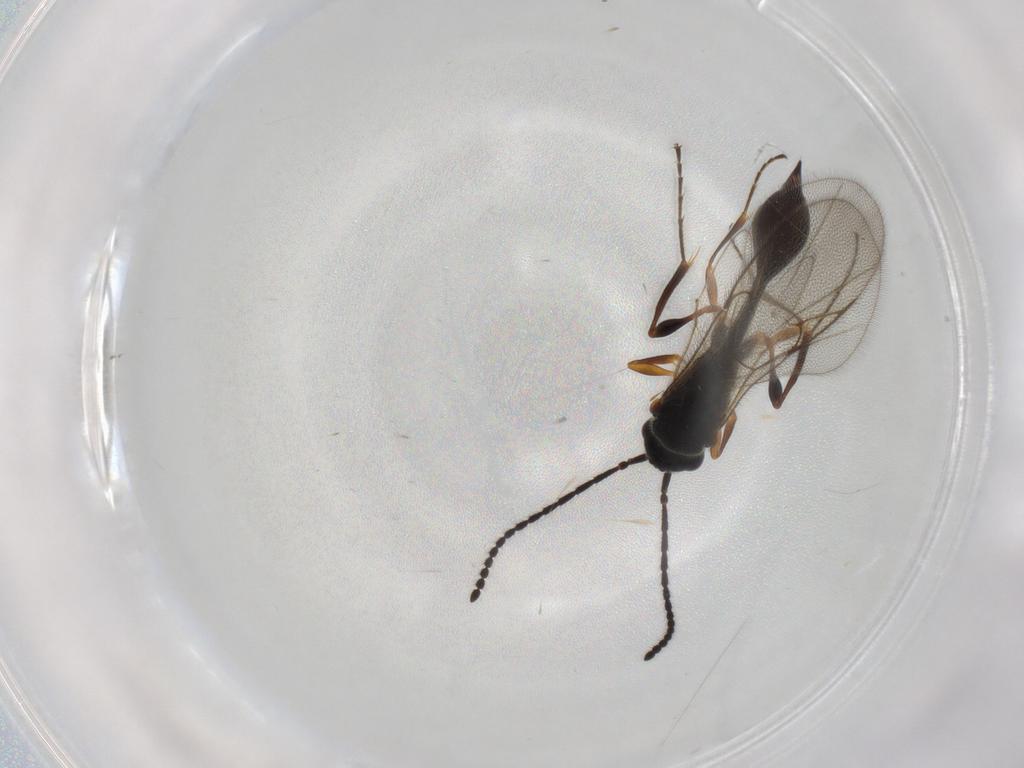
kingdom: Animalia
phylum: Arthropoda
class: Insecta
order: Hymenoptera
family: Diapriidae
